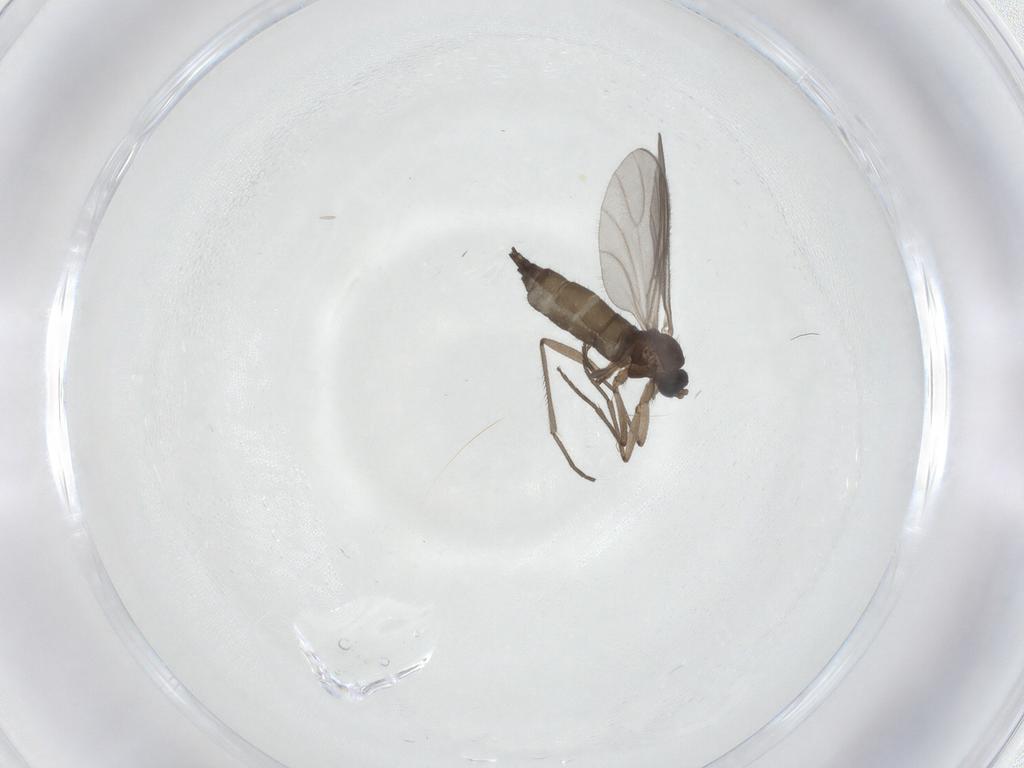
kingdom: Animalia
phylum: Arthropoda
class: Insecta
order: Diptera
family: Sciaridae
